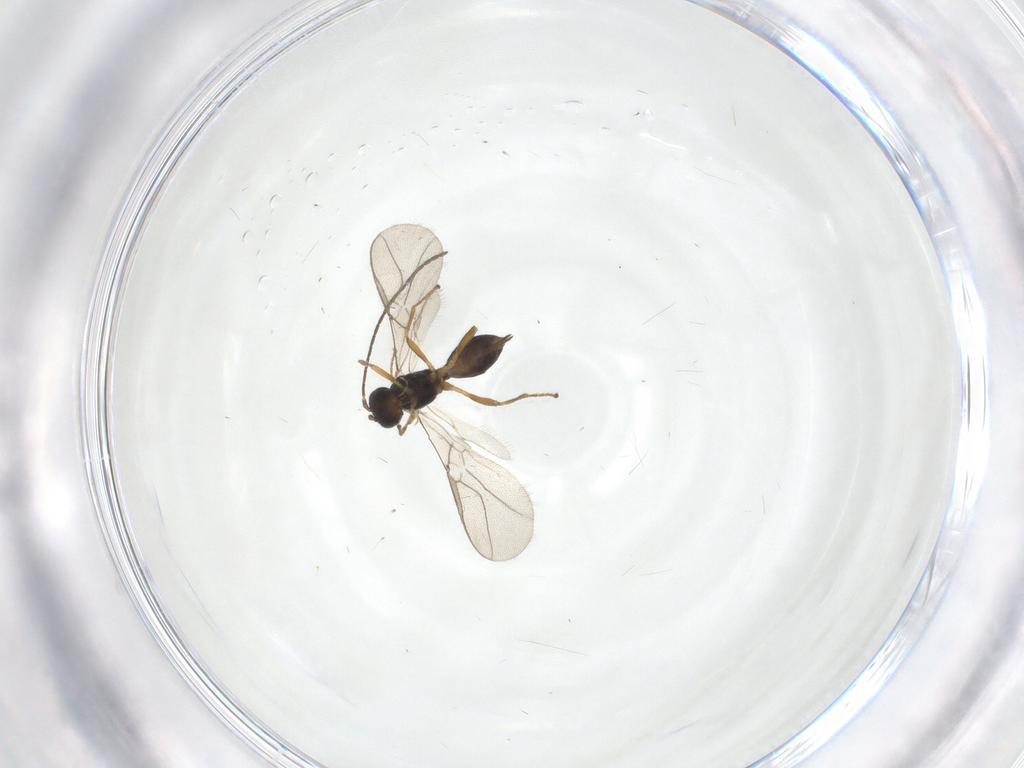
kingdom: Animalia
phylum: Arthropoda
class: Insecta
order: Hymenoptera
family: Braconidae
